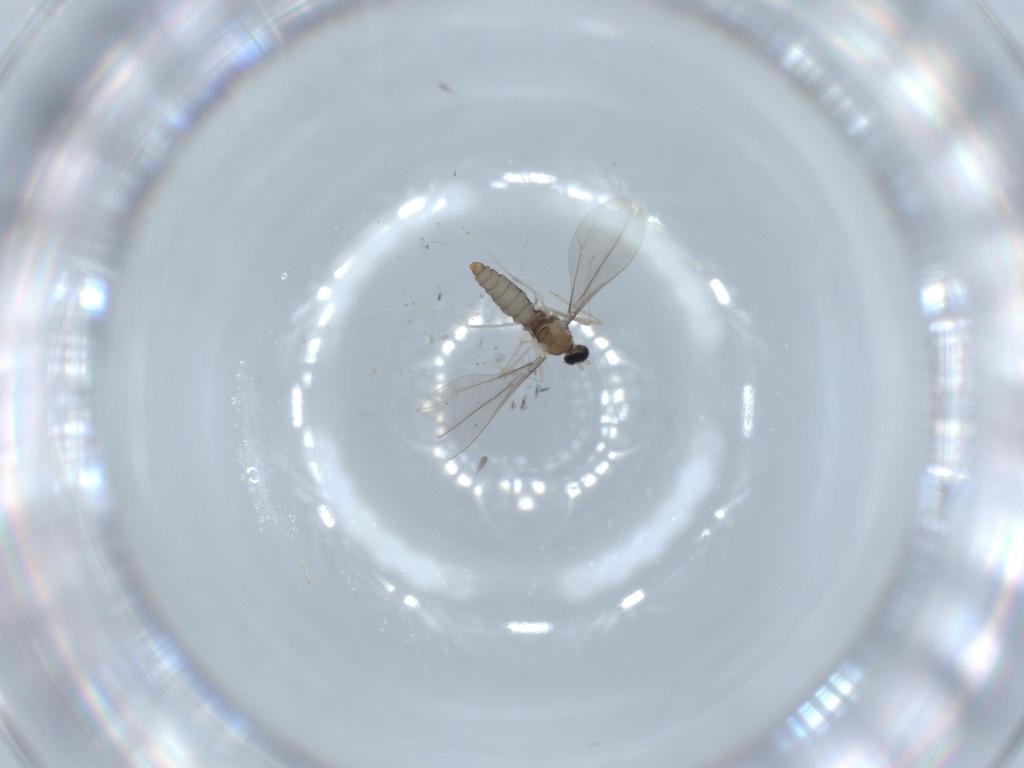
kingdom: Animalia
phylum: Arthropoda
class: Insecta
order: Diptera
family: Cecidomyiidae
